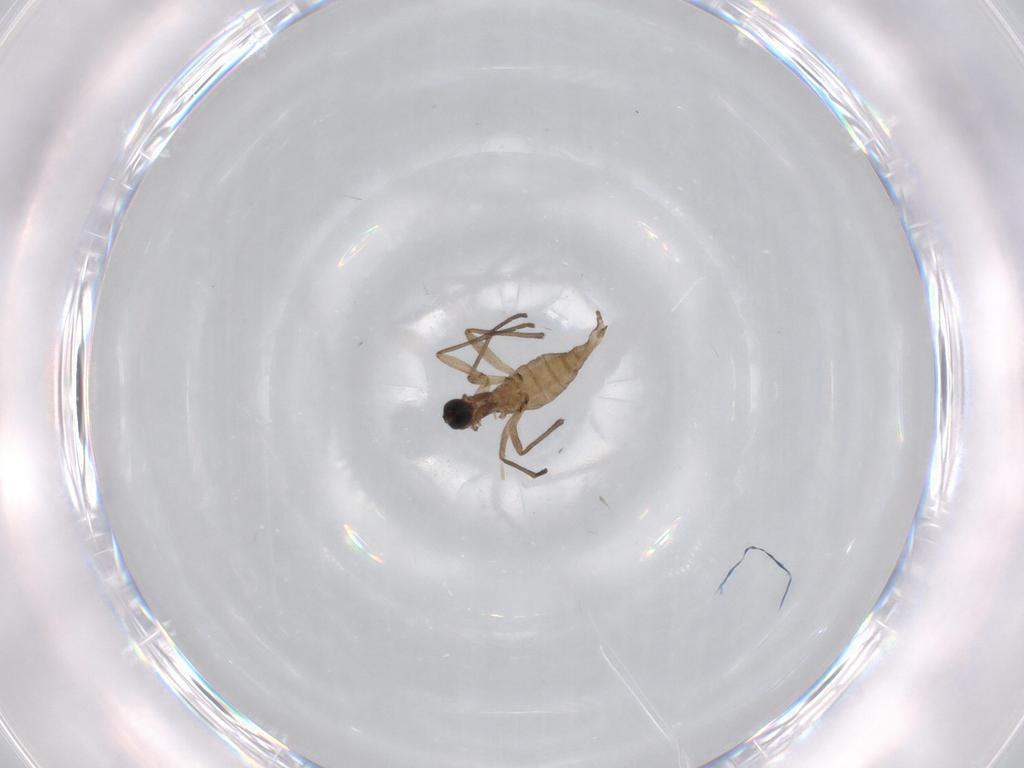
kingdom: Animalia
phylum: Arthropoda
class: Insecta
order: Diptera
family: Sciaridae
